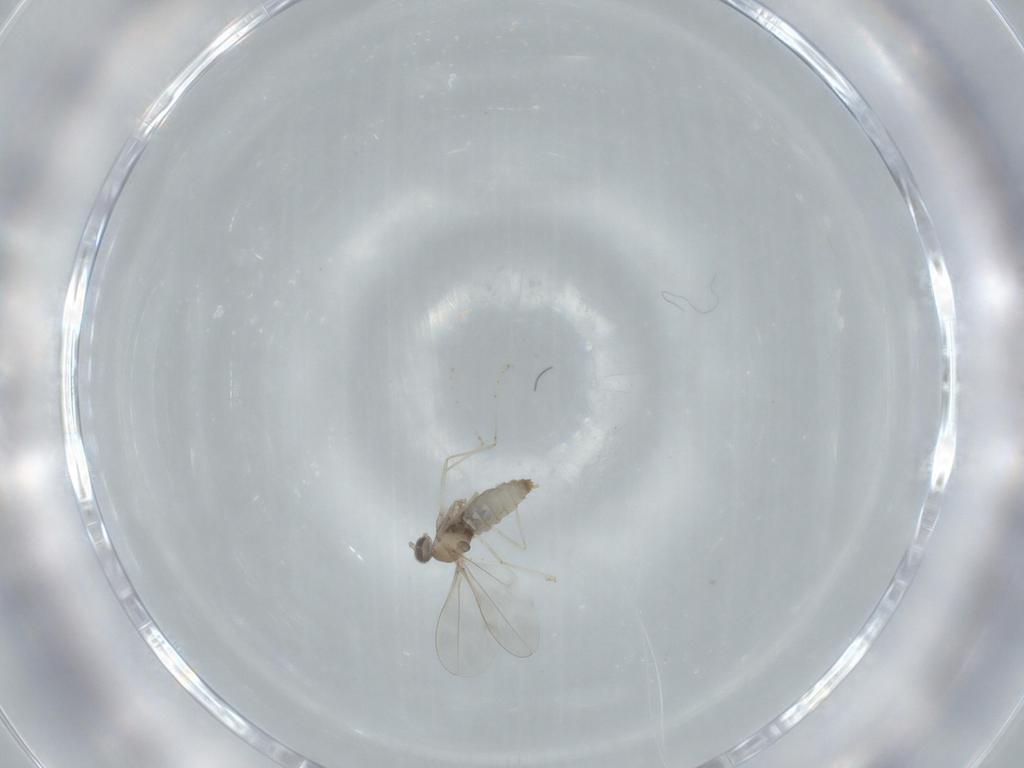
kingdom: Animalia
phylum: Arthropoda
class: Insecta
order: Diptera
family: Cecidomyiidae
